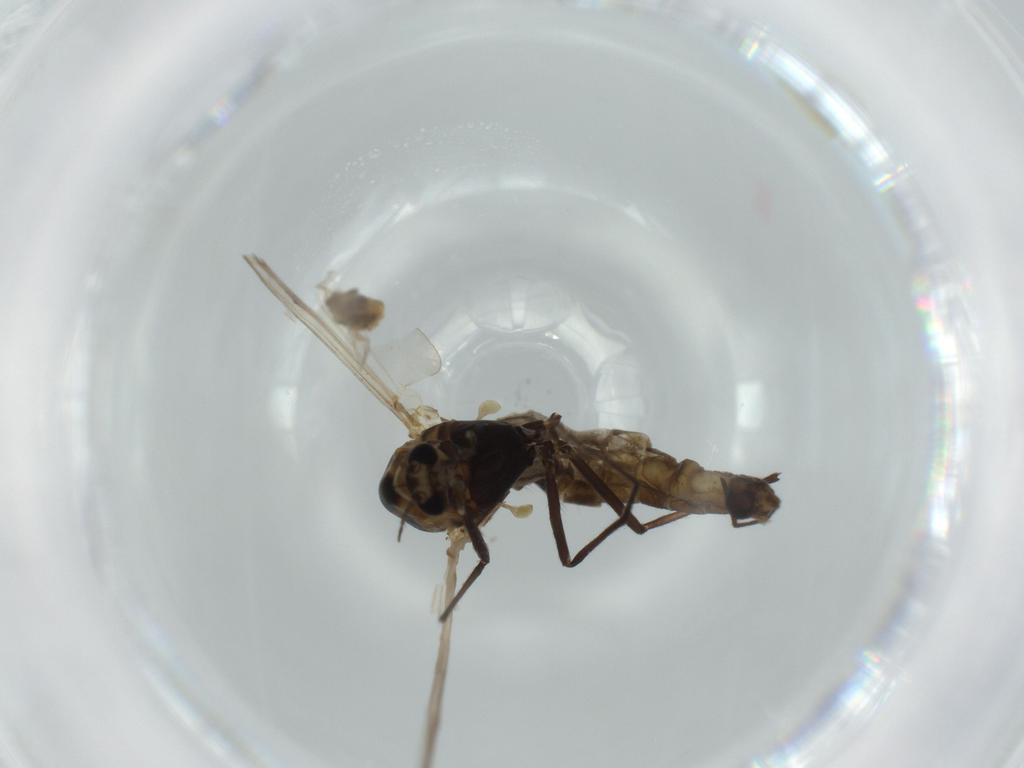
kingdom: Animalia
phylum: Arthropoda
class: Insecta
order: Diptera
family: Chironomidae
